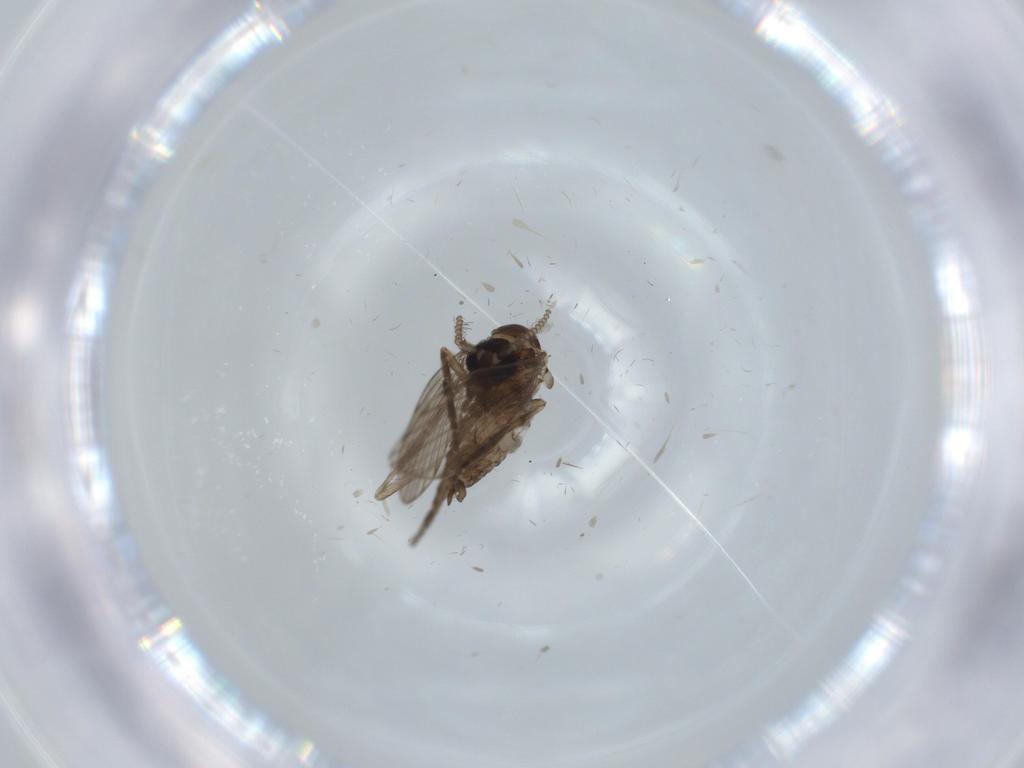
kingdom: Animalia
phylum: Arthropoda
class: Insecta
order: Diptera
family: Psychodidae
